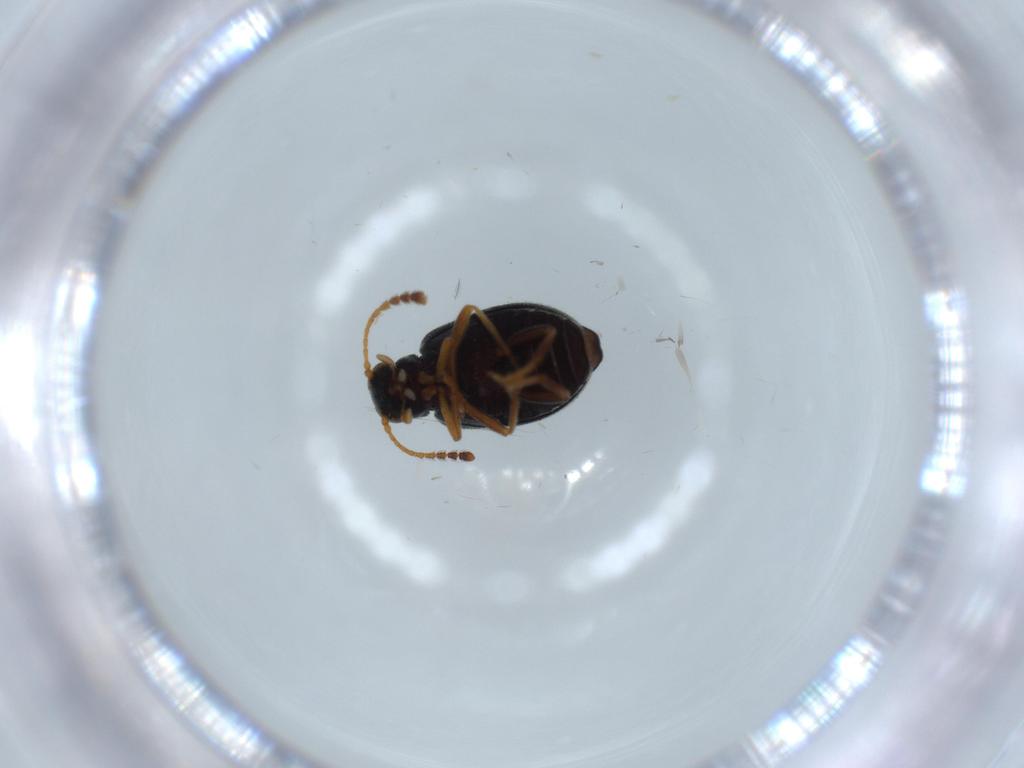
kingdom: Animalia
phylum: Arthropoda
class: Insecta
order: Coleoptera
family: Aderidae
